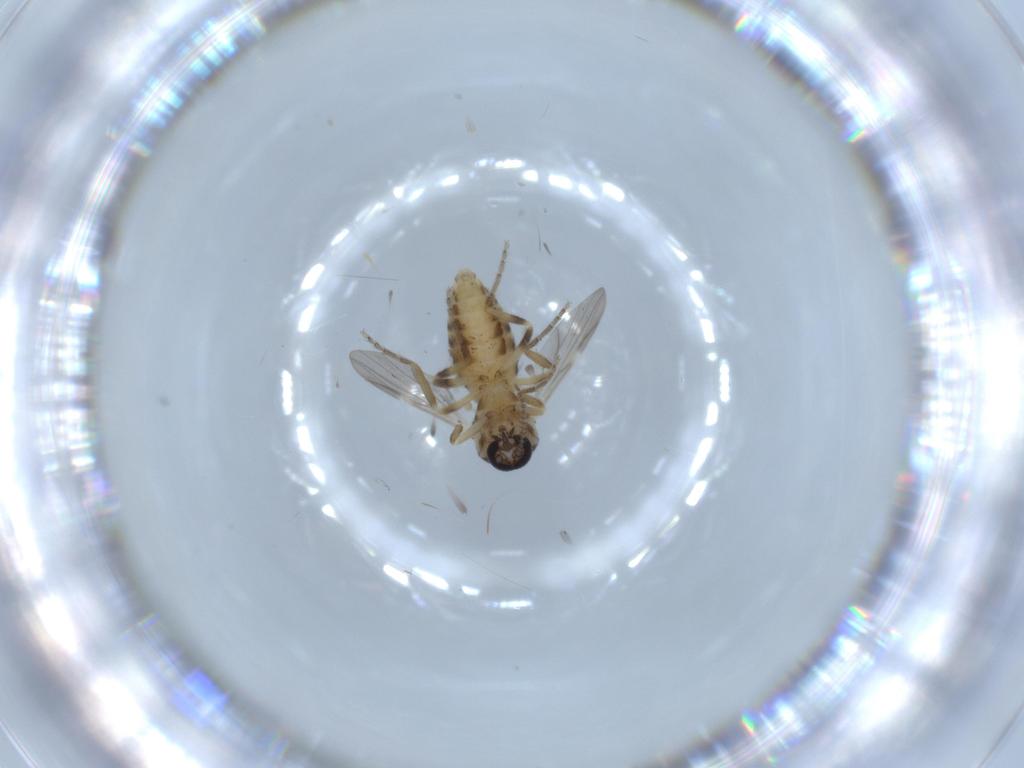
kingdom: Animalia
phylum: Arthropoda
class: Insecta
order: Diptera
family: Ceratopogonidae
